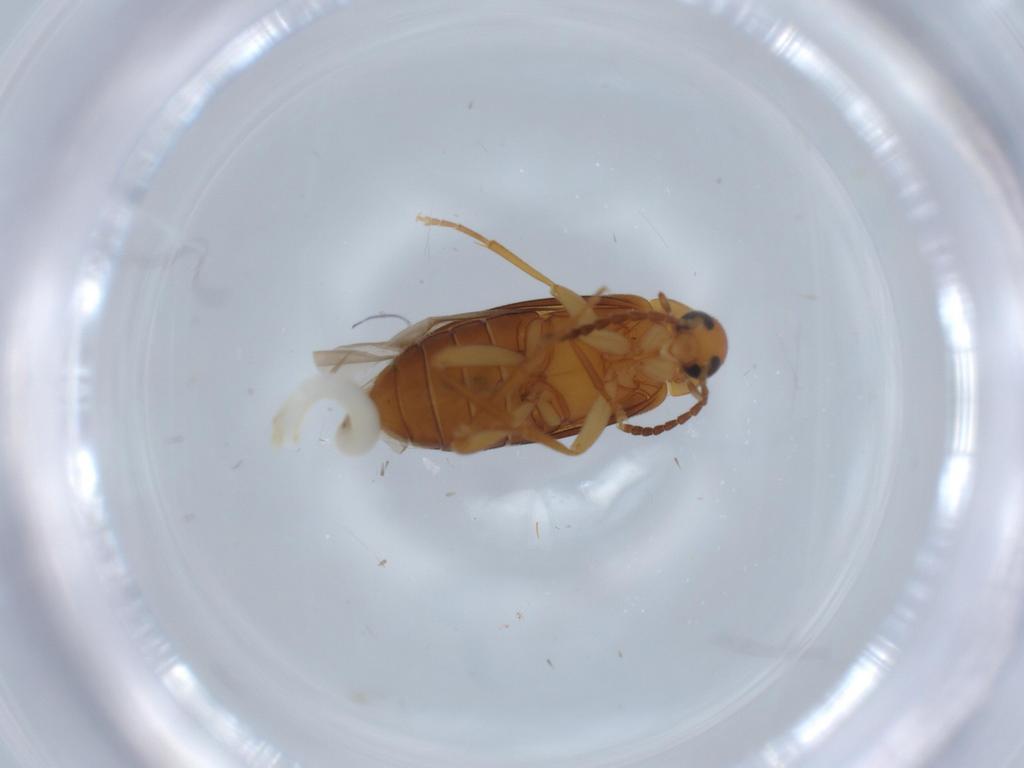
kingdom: Animalia
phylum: Arthropoda
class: Insecta
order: Coleoptera
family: Scraptiidae
